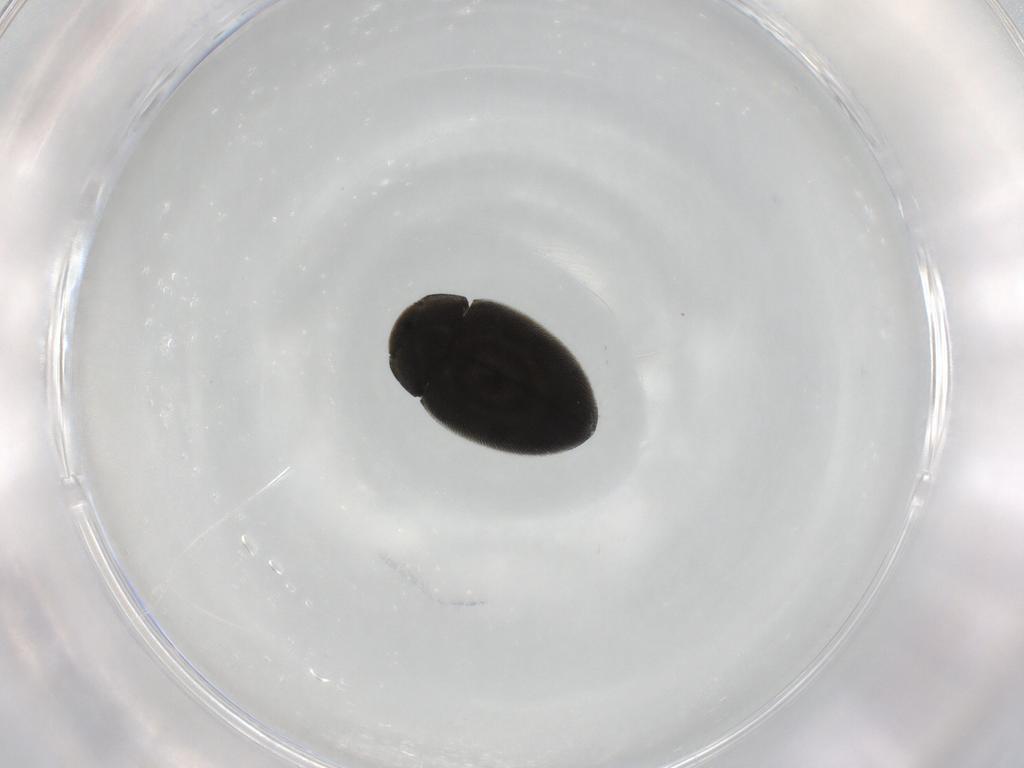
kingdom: Animalia
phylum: Arthropoda
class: Insecta
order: Coleoptera
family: Limnichidae
